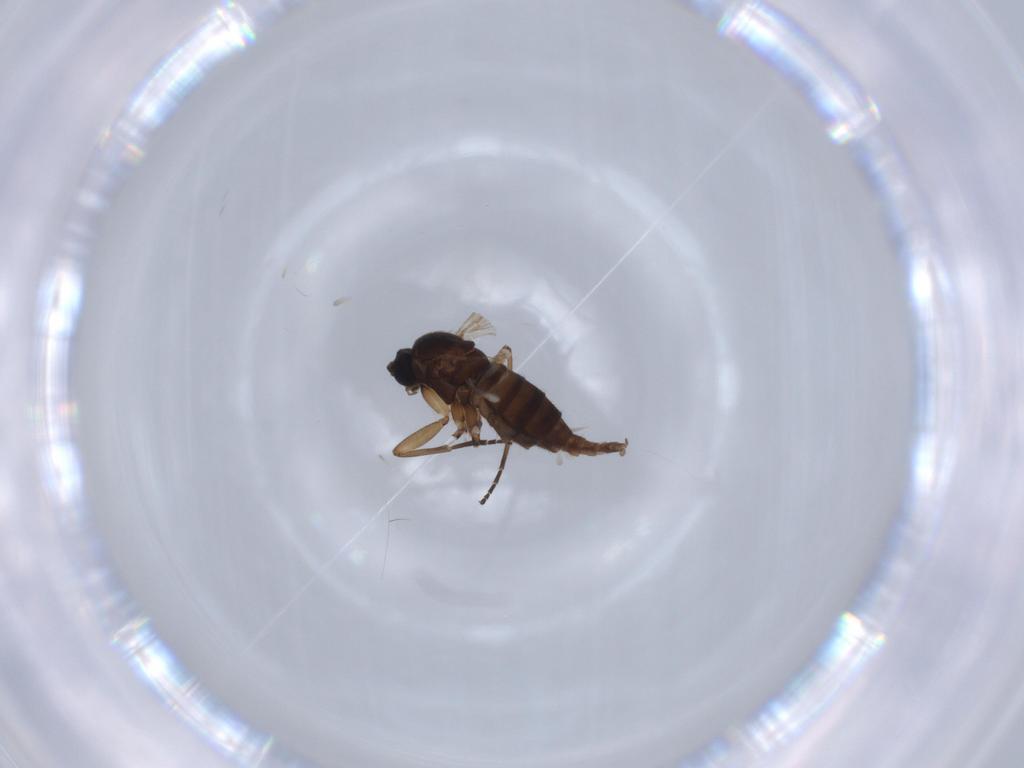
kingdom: Animalia
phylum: Arthropoda
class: Insecta
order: Diptera
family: Sciaridae
